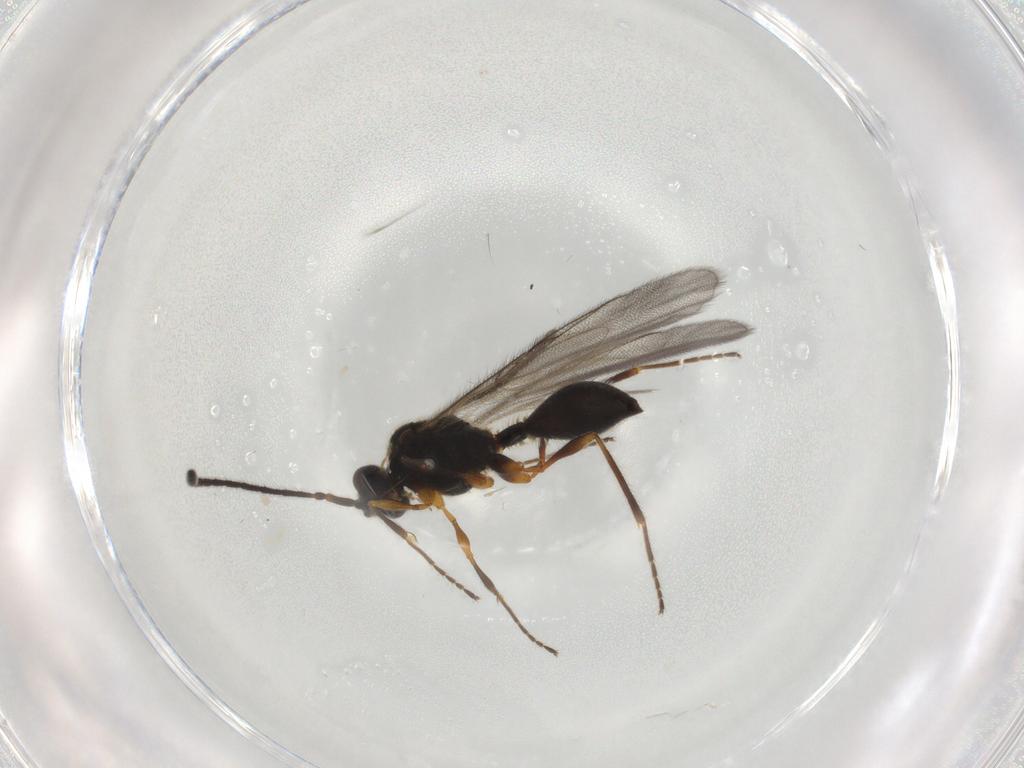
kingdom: Animalia
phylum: Arthropoda
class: Insecta
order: Hymenoptera
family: Diapriidae
